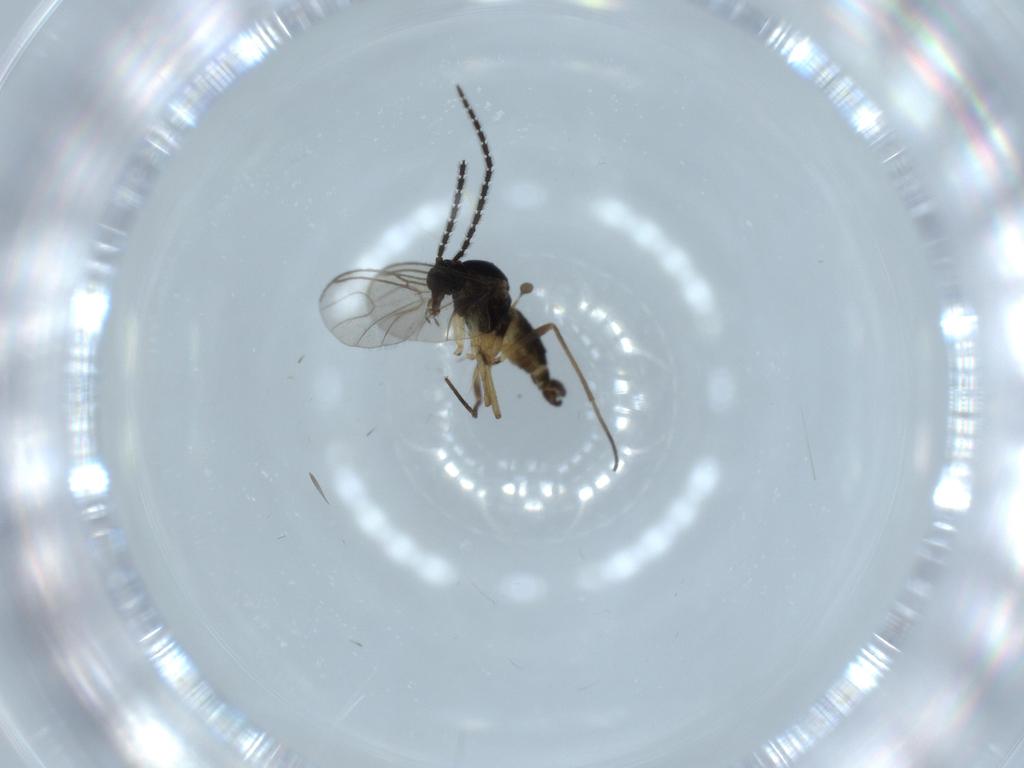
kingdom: Animalia
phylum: Arthropoda
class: Insecta
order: Diptera
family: Sciaridae
